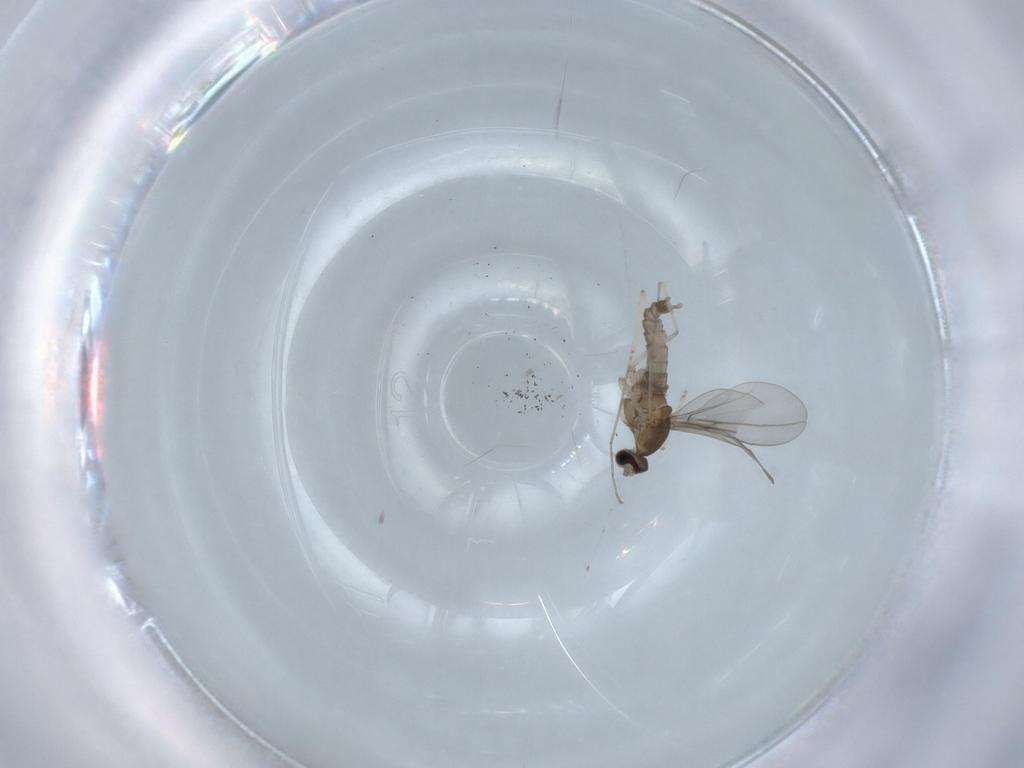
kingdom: Animalia
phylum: Arthropoda
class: Insecta
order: Diptera
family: Cecidomyiidae
